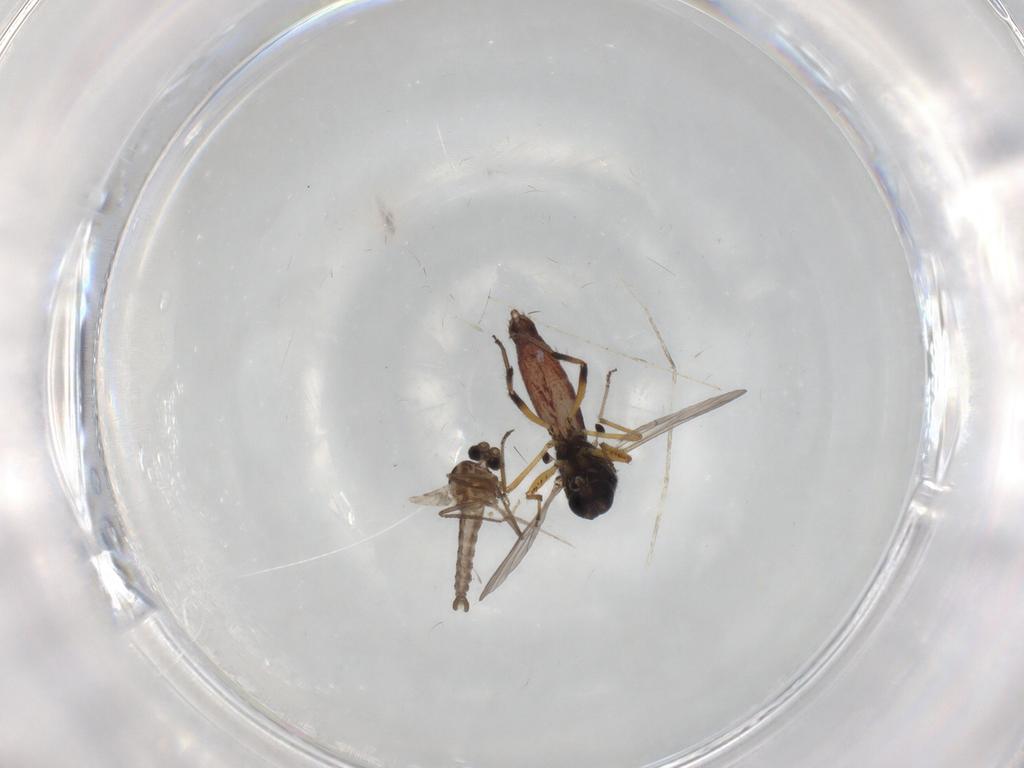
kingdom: Animalia
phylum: Arthropoda
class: Insecta
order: Diptera
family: Ceratopogonidae
